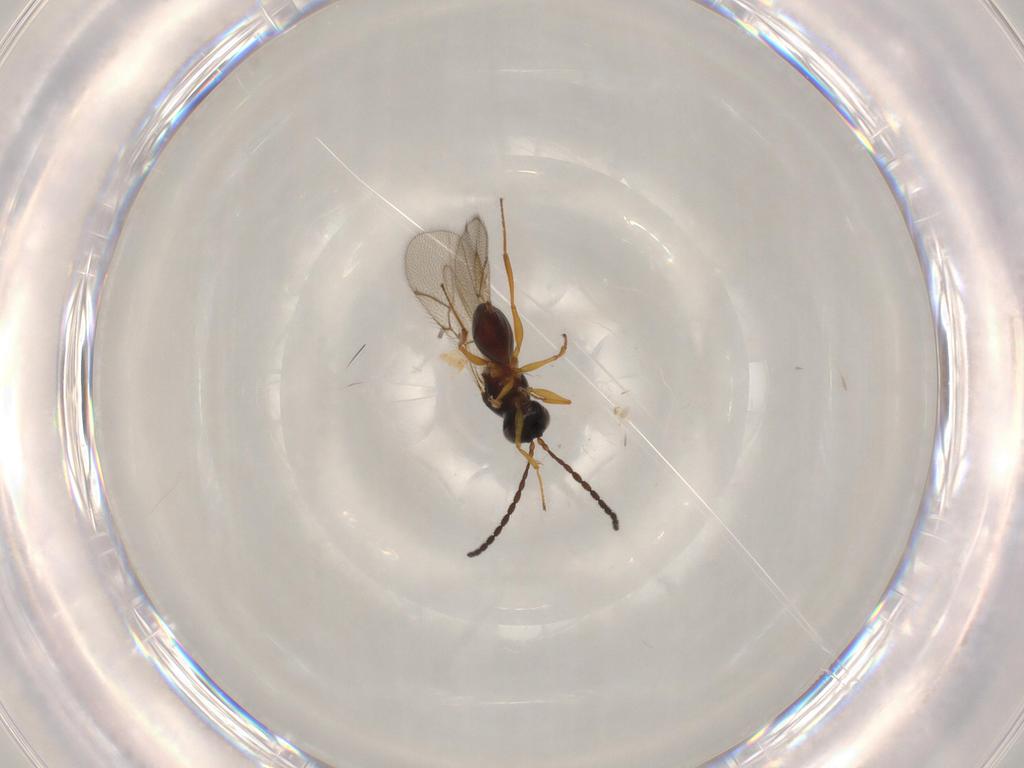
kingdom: Animalia
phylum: Arthropoda
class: Insecta
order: Hymenoptera
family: Figitidae
